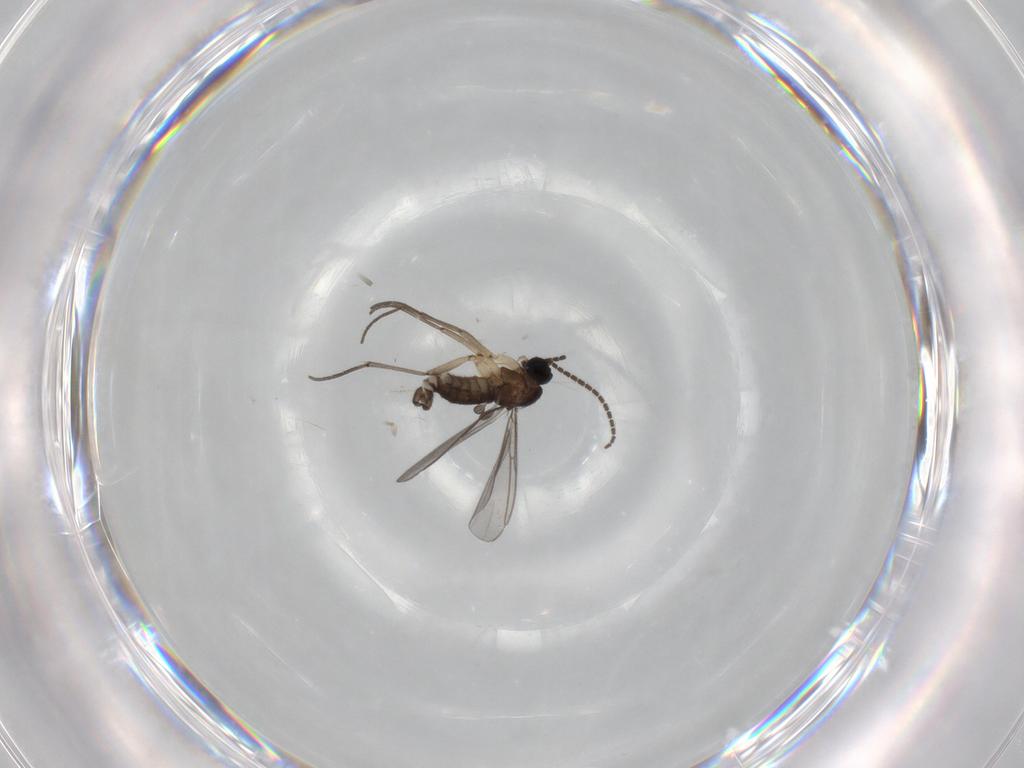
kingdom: Animalia
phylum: Arthropoda
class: Insecta
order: Diptera
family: Sciaridae
